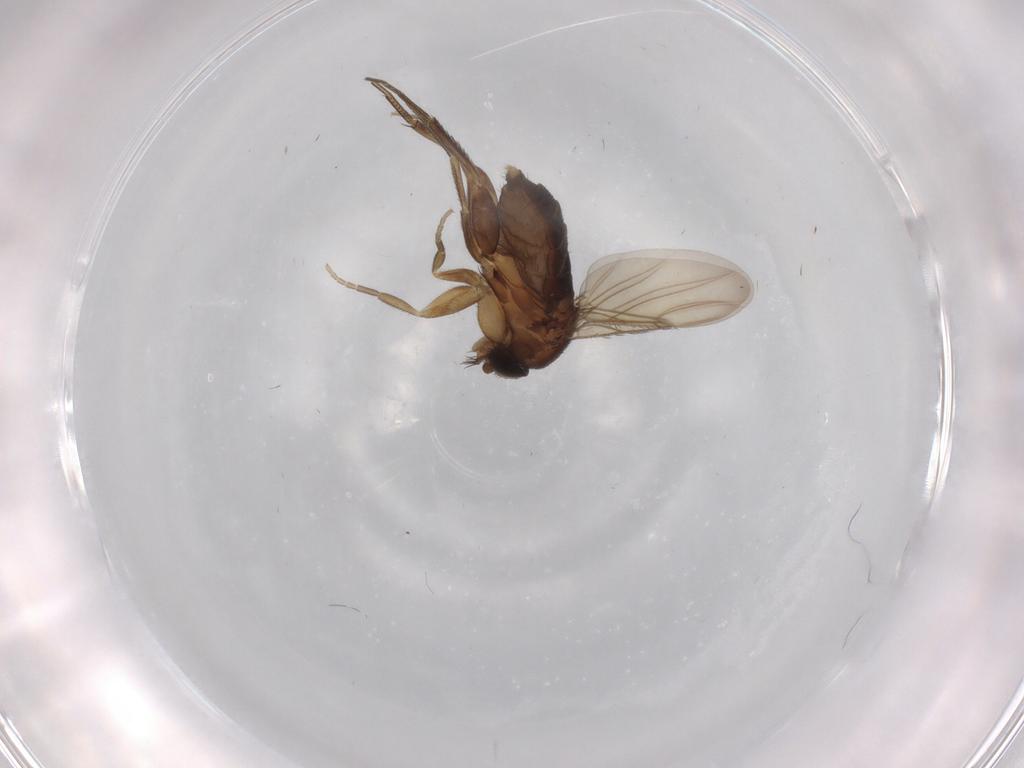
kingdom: Animalia
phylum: Arthropoda
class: Insecta
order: Diptera
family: Phoridae
